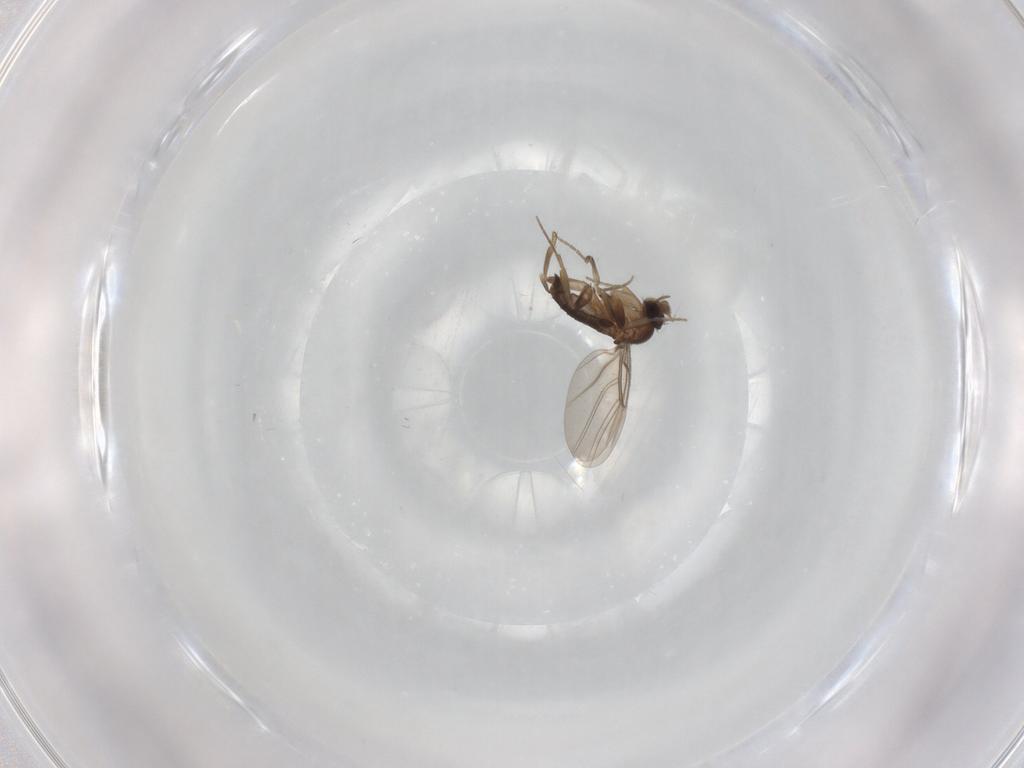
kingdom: Animalia
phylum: Arthropoda
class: Insecta
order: Diptera
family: Phoridae
